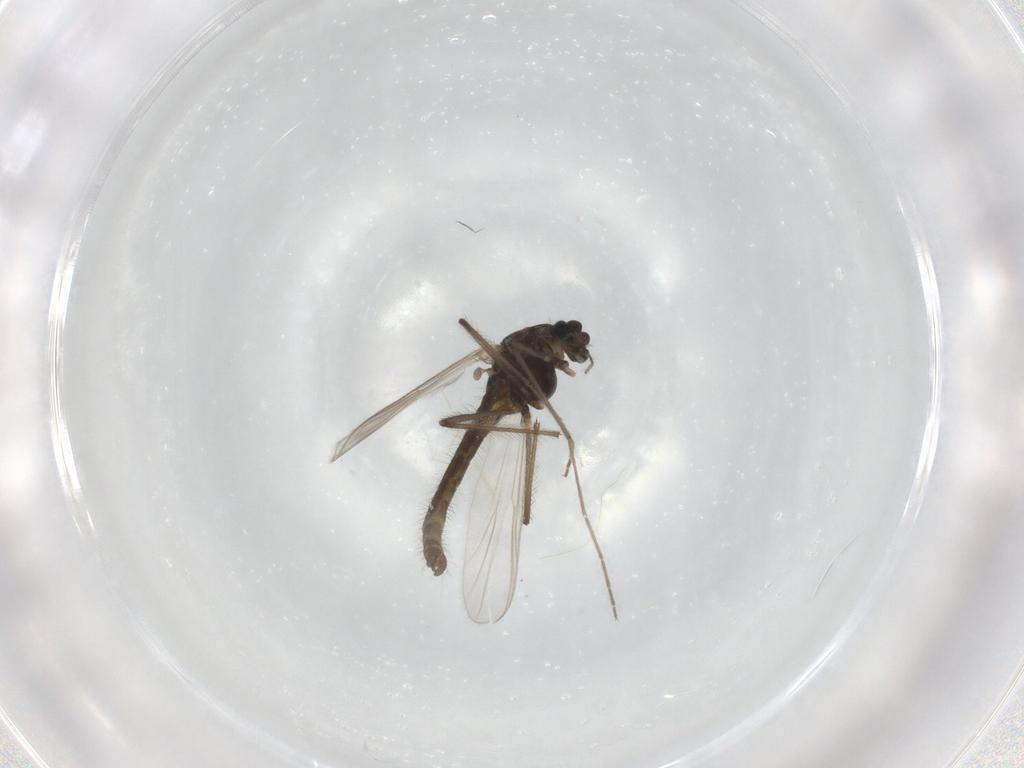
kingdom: Animalia
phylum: Arthropoda
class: Insecta
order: Diptera
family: Chironomidae
